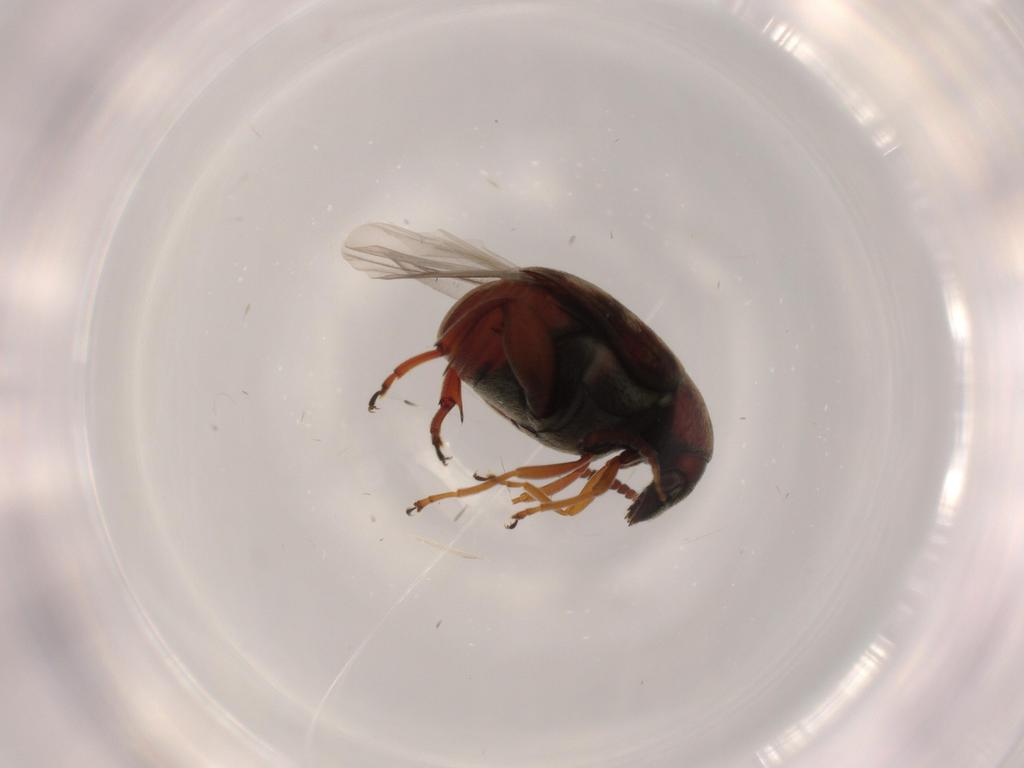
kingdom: Animalia
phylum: Arthropoda
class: Insecta
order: Coleoptera
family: Chrysomelidae
